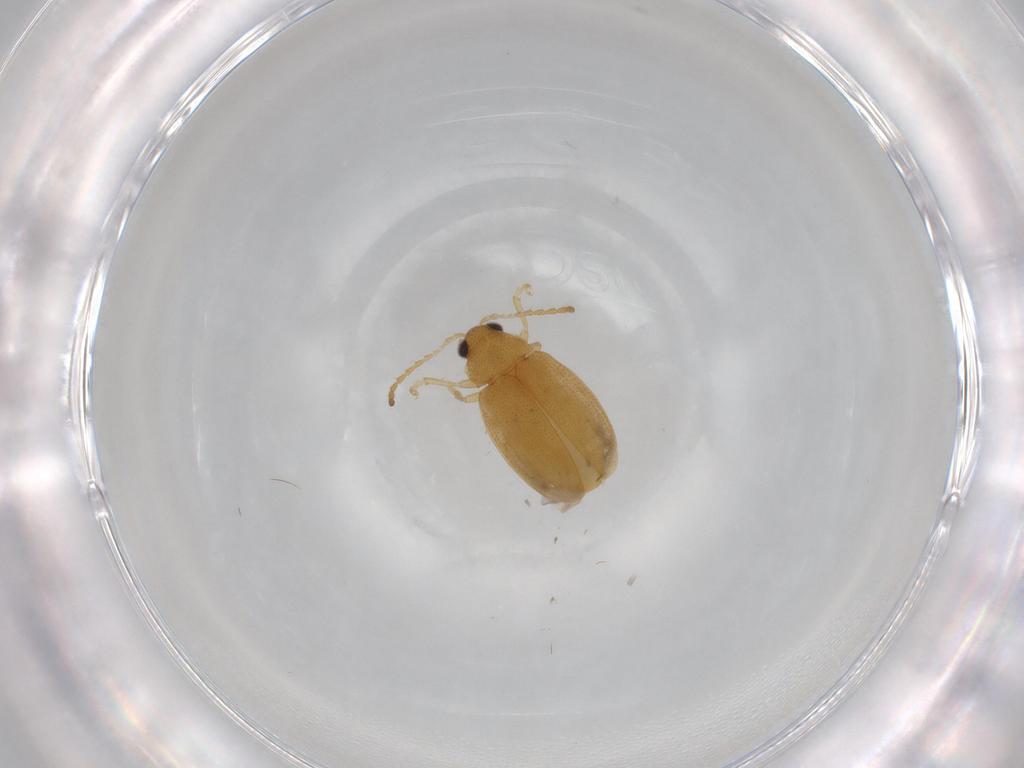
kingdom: Animalia
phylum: Arthropoda
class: Insecta
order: Coleoptera
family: Chrysomelidae
